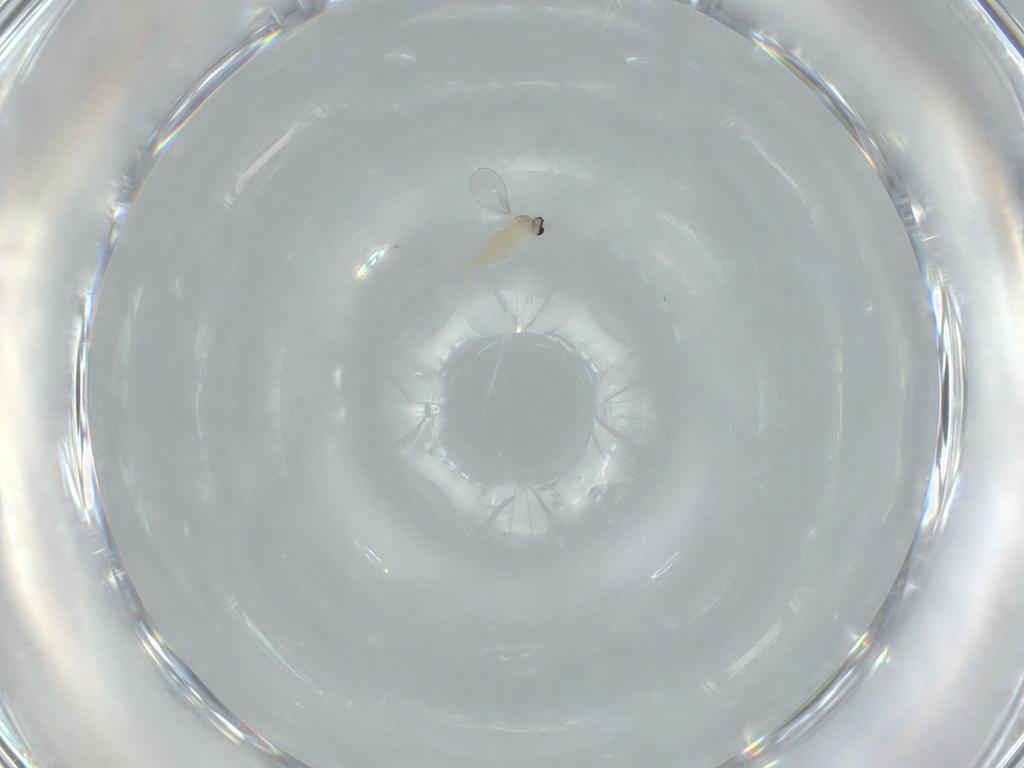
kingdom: Animalia
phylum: Arthropoda
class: Insecta
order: Diptera
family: Cecidomyiidae
